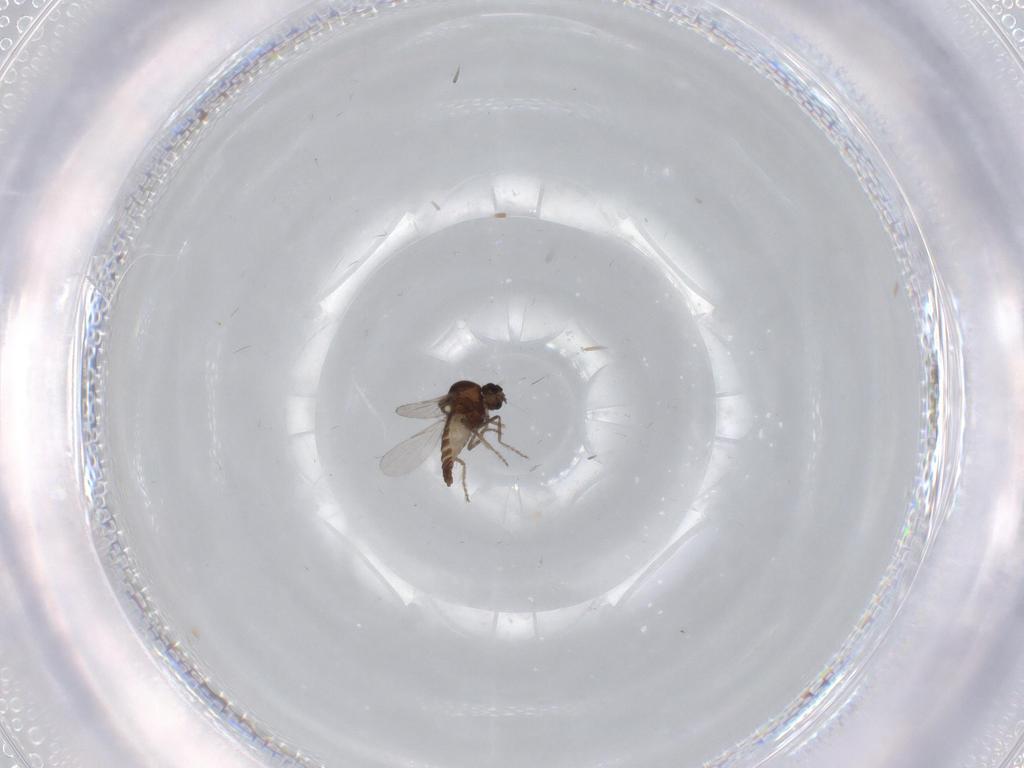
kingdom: Animalia
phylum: Arthropoda
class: Insecta
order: Diptera
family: Ceratopogonidae
